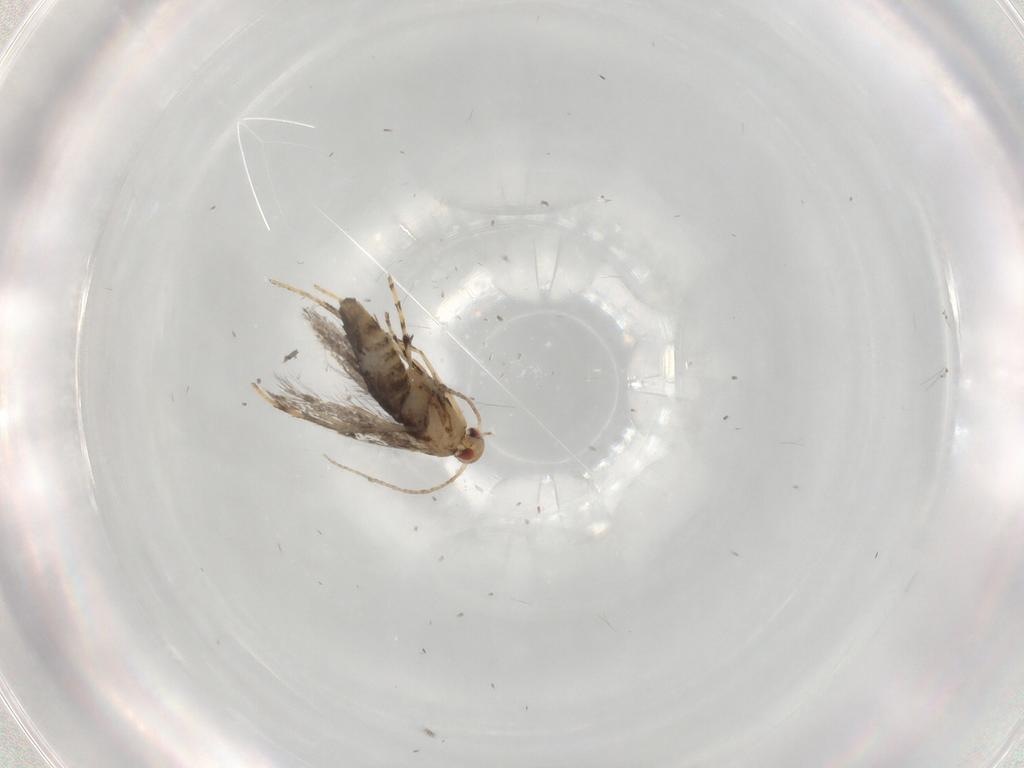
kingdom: Animalia
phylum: Arthropoda
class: Insecta
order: Lepidoptera
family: Gracillariidae
